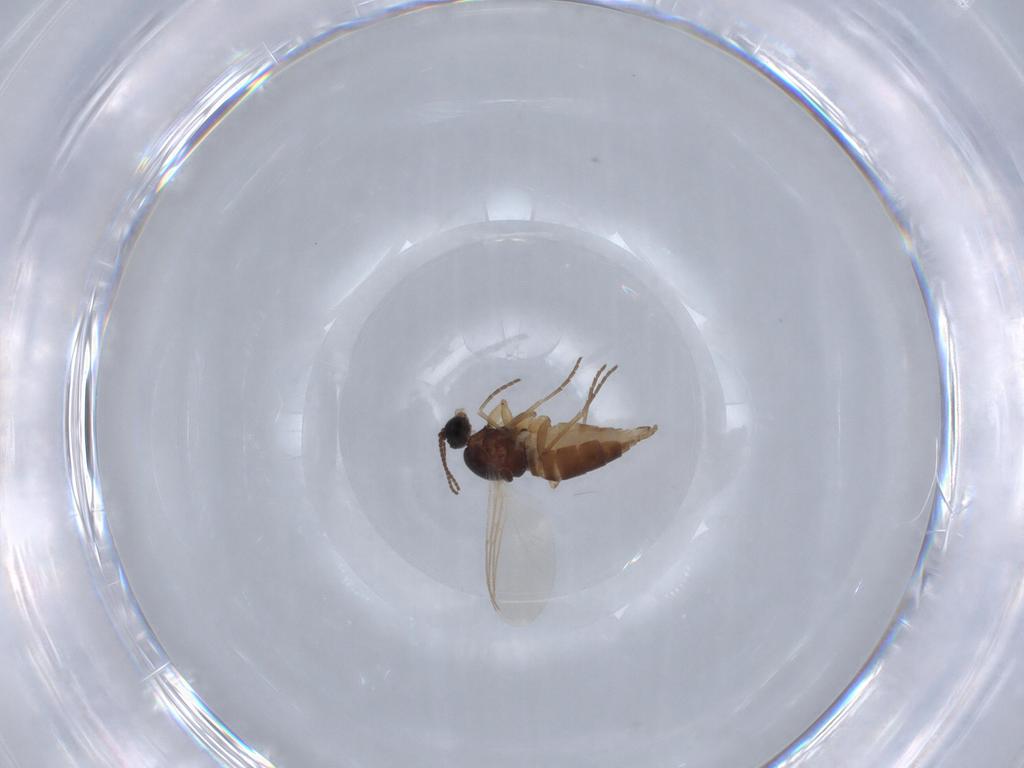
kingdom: Animalia
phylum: Arthropoda
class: Insecta
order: Diptera
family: Sciaridae
